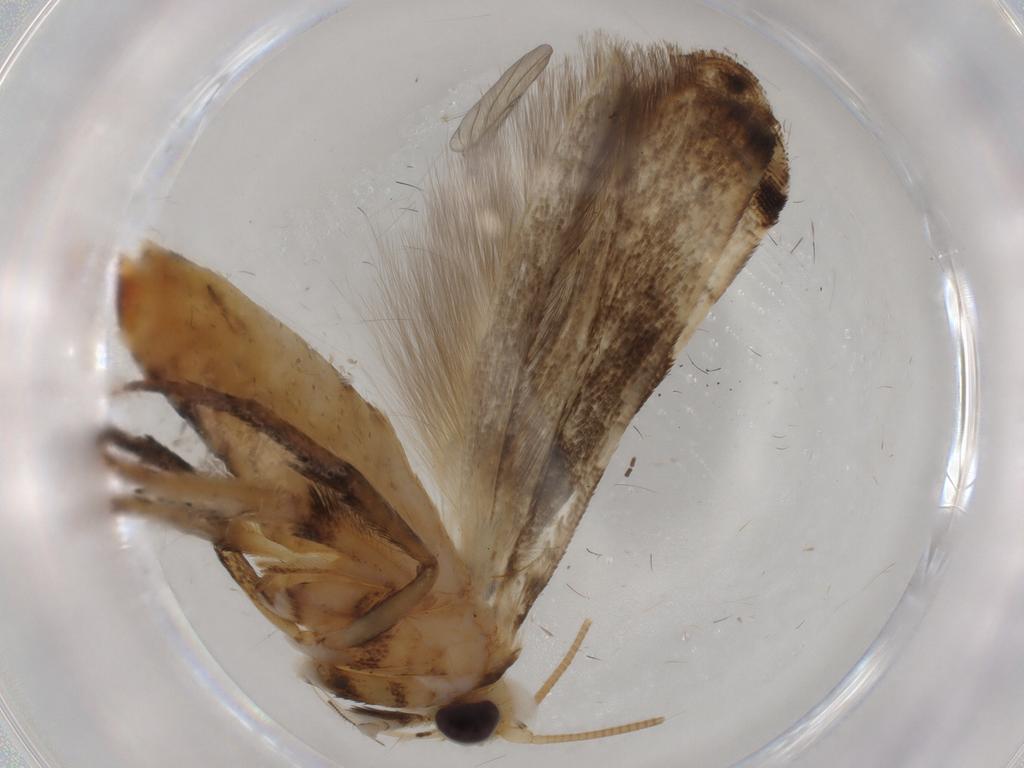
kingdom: Animalia
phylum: Arthropoda
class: Insecta
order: Lepidoptera
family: Gracillariidae
